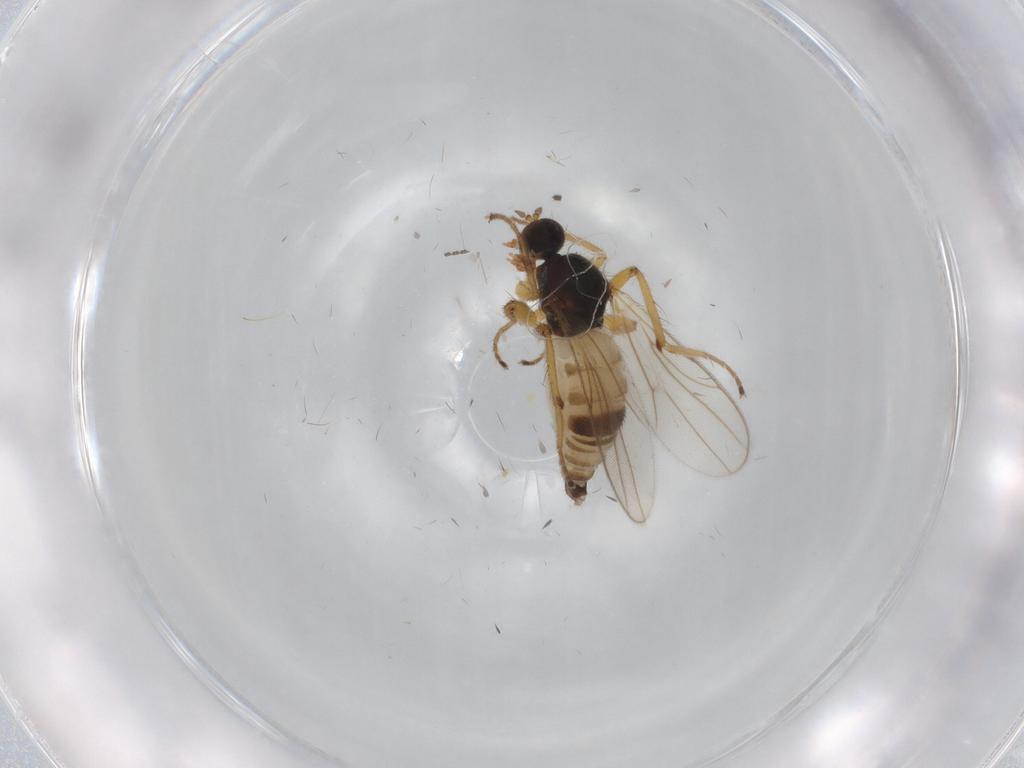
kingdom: Animalia
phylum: Arthropoda
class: Insecta
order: Diptera
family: Hybotidae
